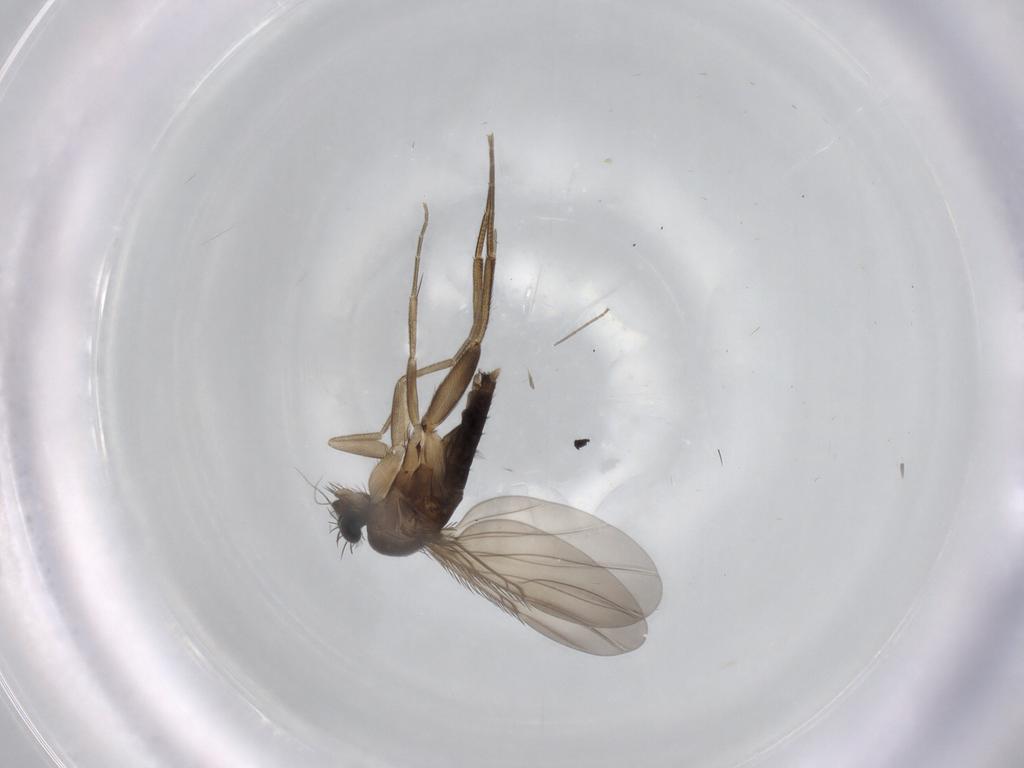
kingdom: Animalia
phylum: Arthropoda
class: Insecta
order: Diptera
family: Phoridae
